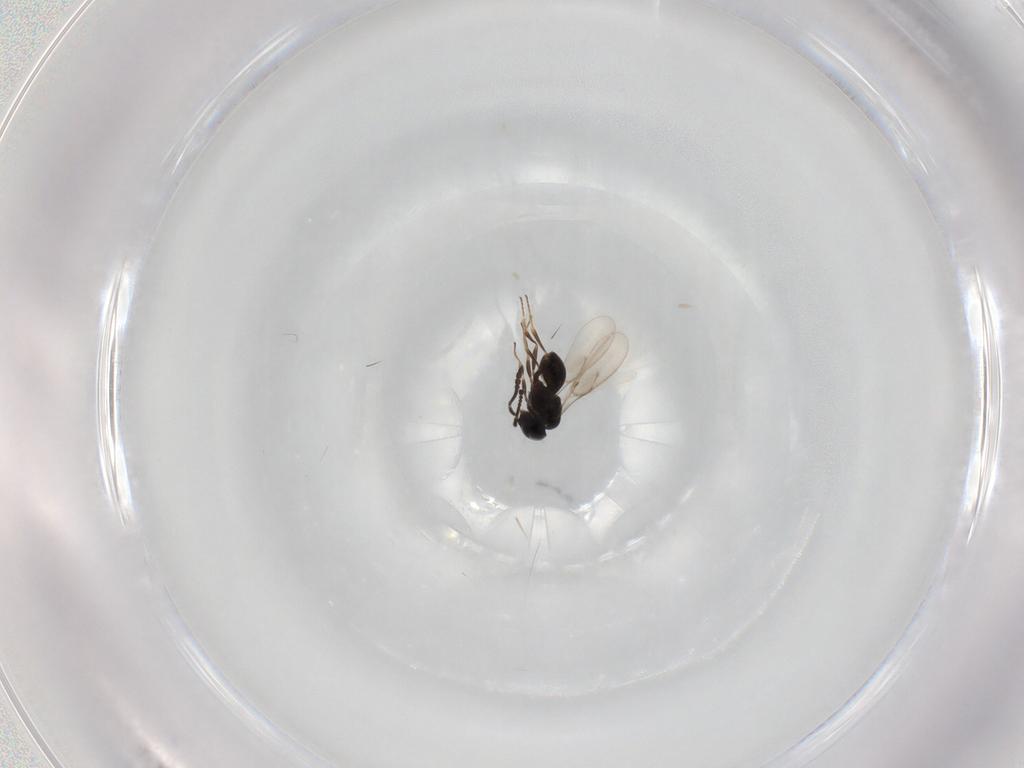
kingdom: Animalia
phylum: Arthropoda
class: Insecta
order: Hymenoptera
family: Scelionidae
